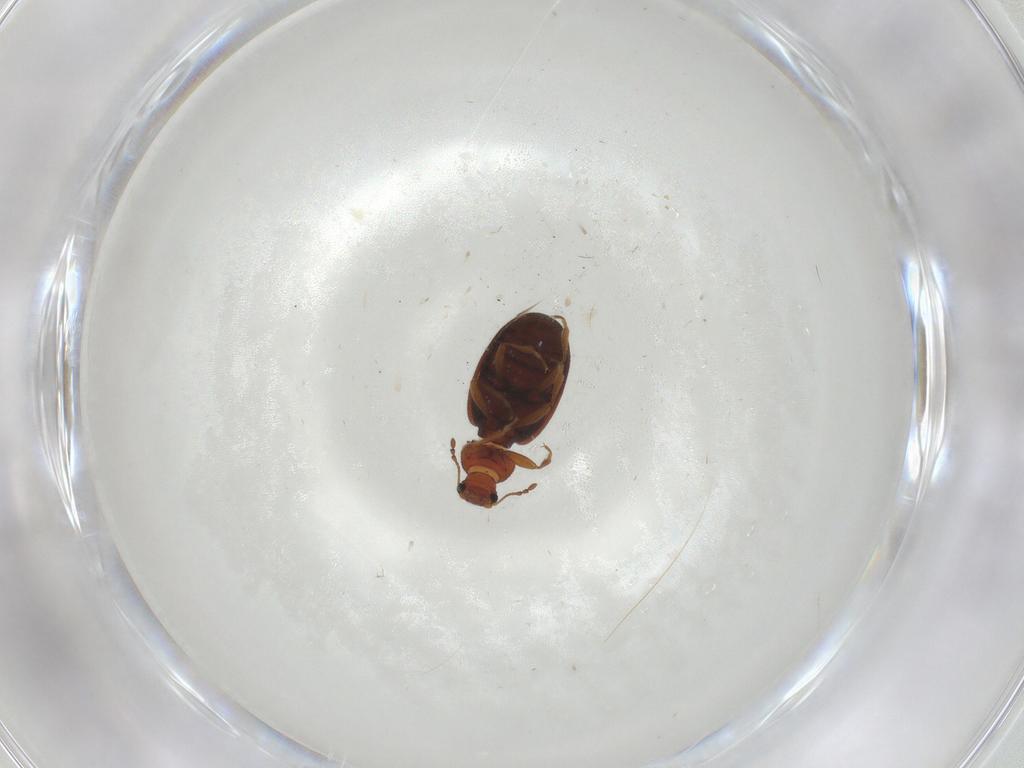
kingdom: Animalia
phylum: Arthropoda
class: Insecta
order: Coleoptera
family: Latridiidae
